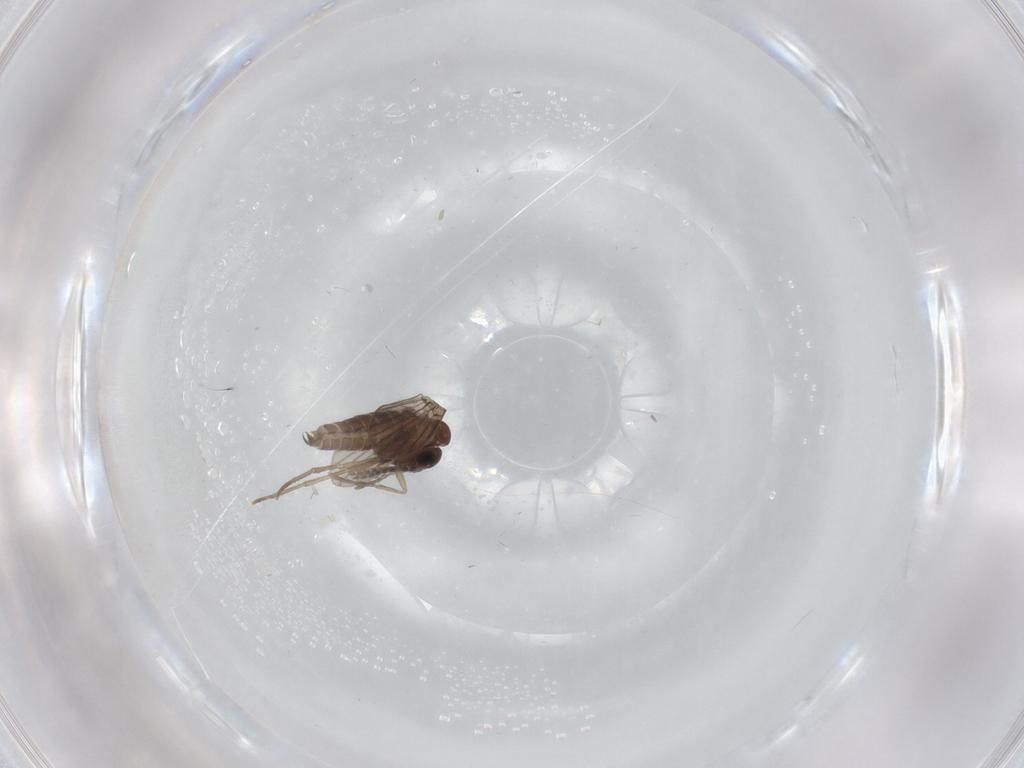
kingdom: Animalia
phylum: Arthropoda
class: Insecta
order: Diptera
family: Cecidomyiidae
